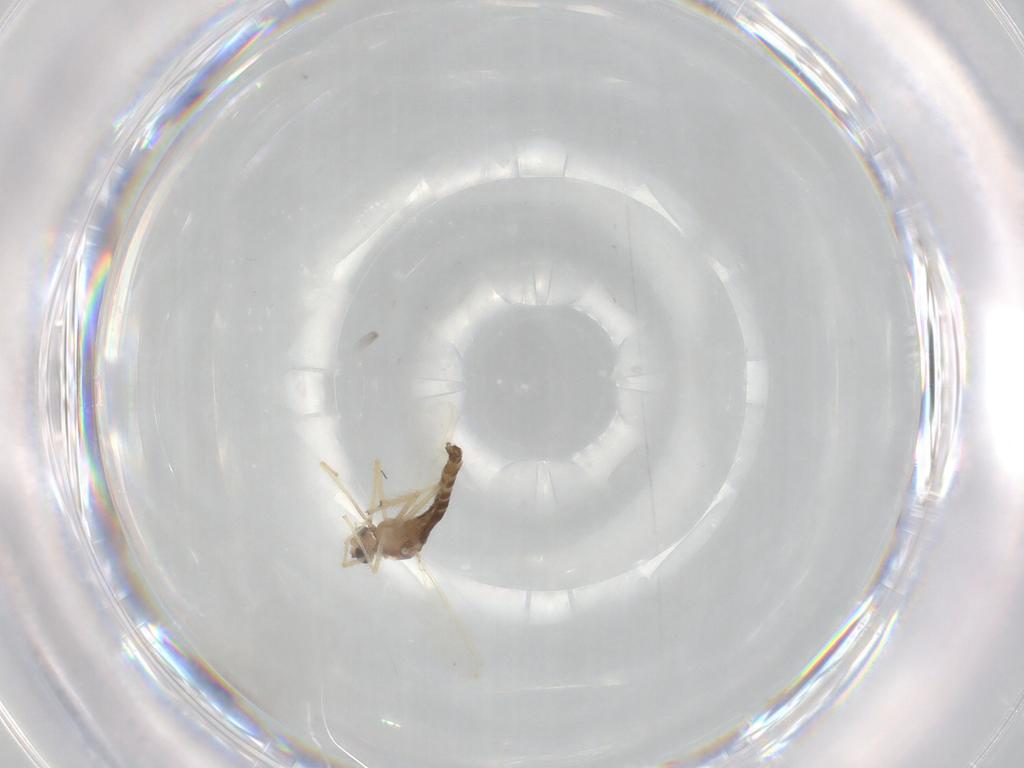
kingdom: Animalia
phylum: Arthropoda
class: Insecta
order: Diptera
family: Chironomidae
